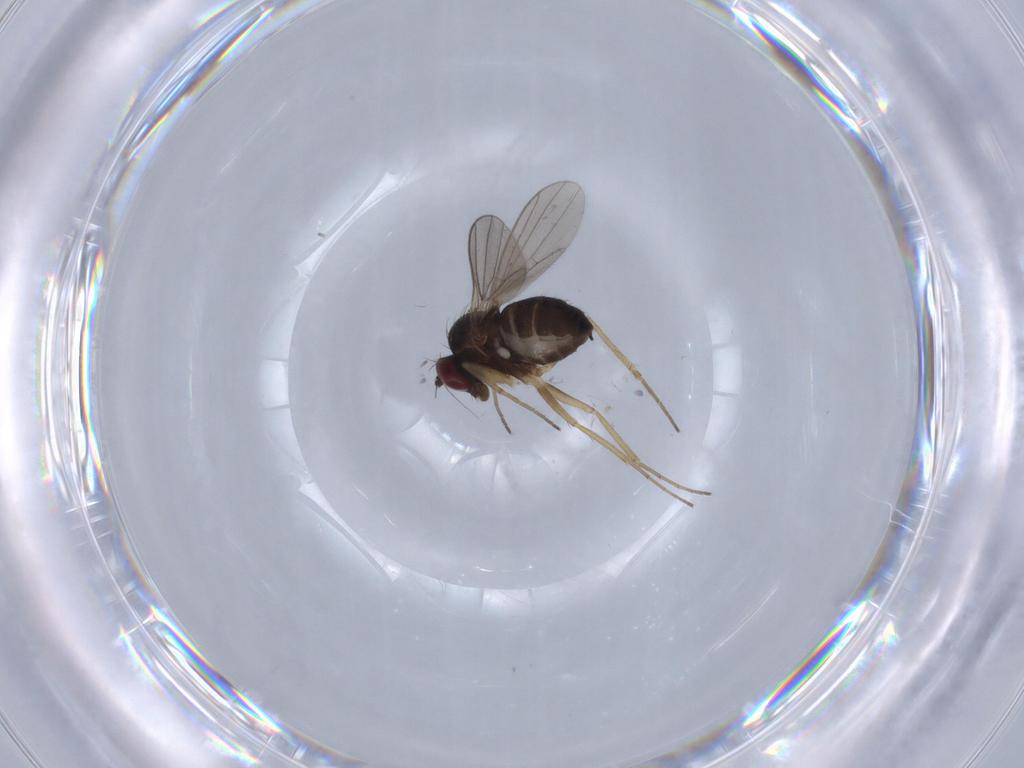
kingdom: Animalia
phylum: Arthropoda
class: Insecta
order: Diptera
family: Dolichopodidae
